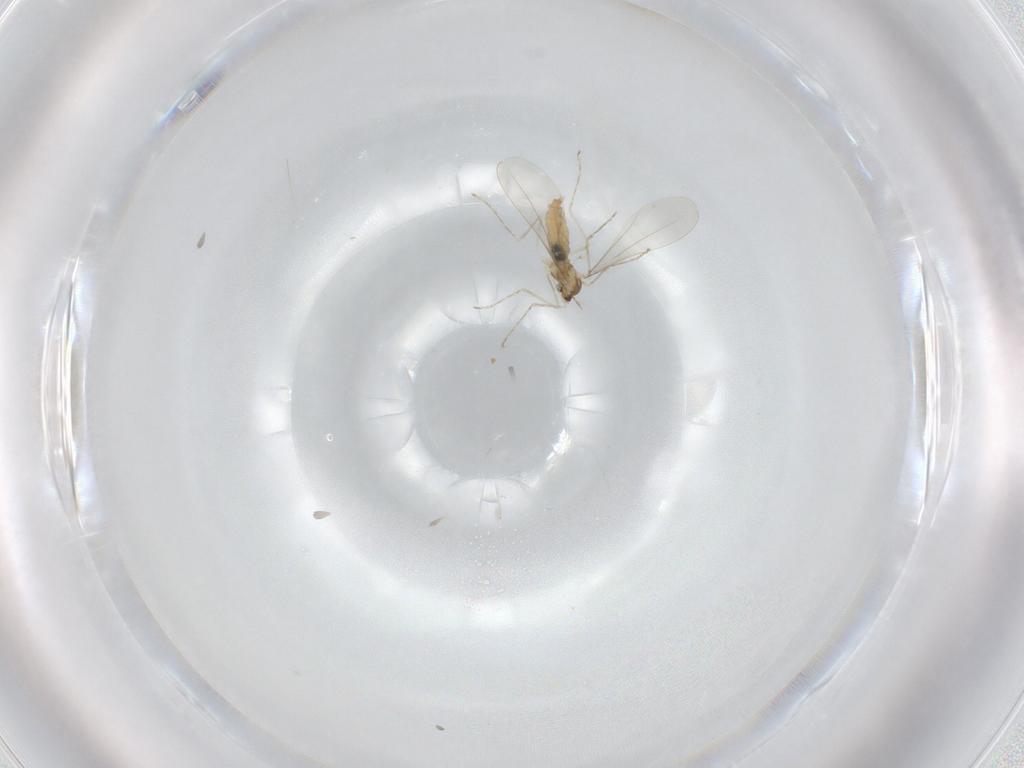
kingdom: Animalia
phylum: Arthropoda
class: Insecta
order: Diptera
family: Cecidomyiidae
